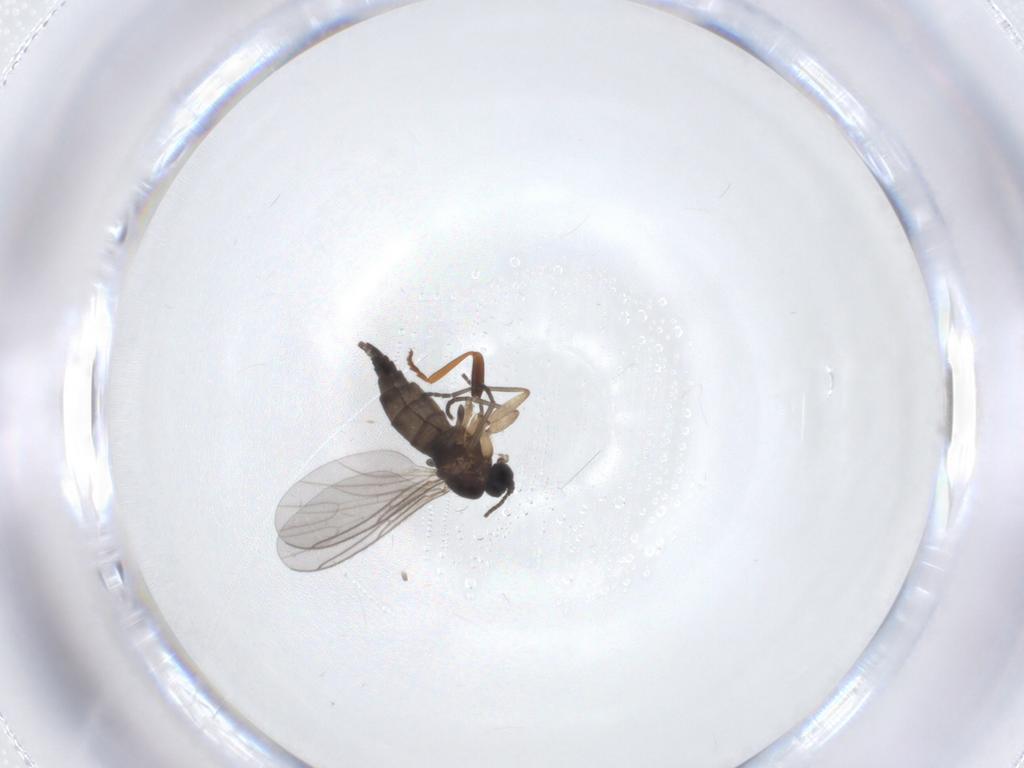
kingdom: Animalia
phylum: Arthropoda
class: Insecta
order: Diptera
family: Sciaridae
